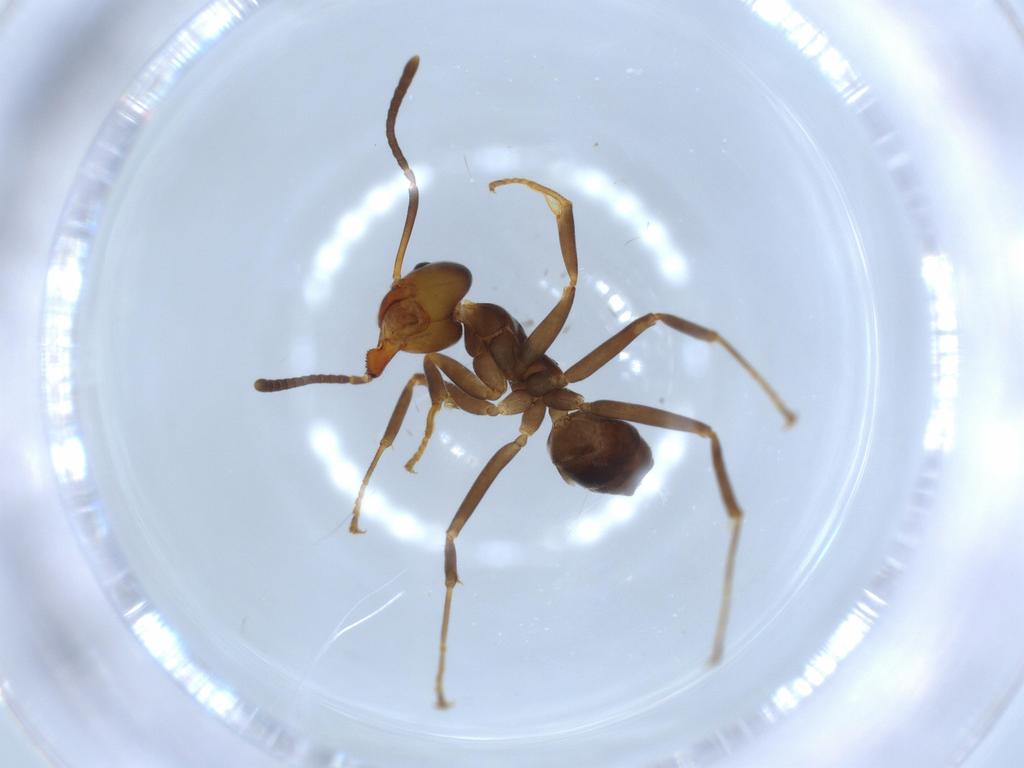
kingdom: Animalia
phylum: Arthropoda
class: Insecta
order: Hymenoptera
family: Formicidae
